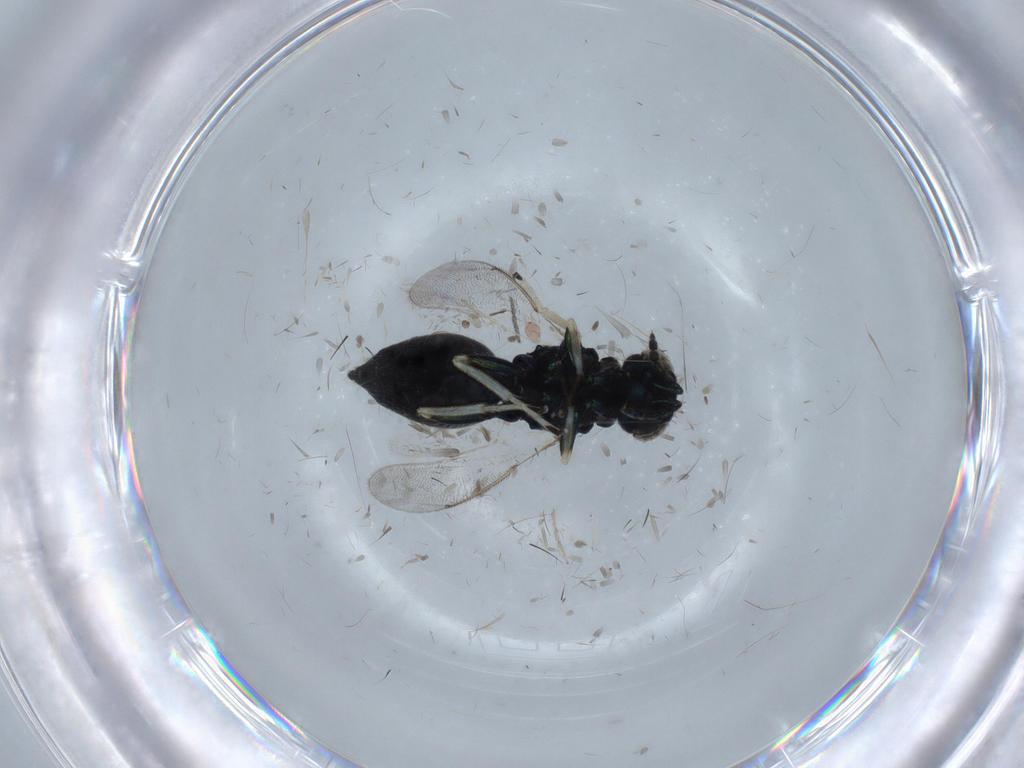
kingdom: Animalia
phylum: Arthropoda
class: Insecta
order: Hymenoptera
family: Eulophidae
